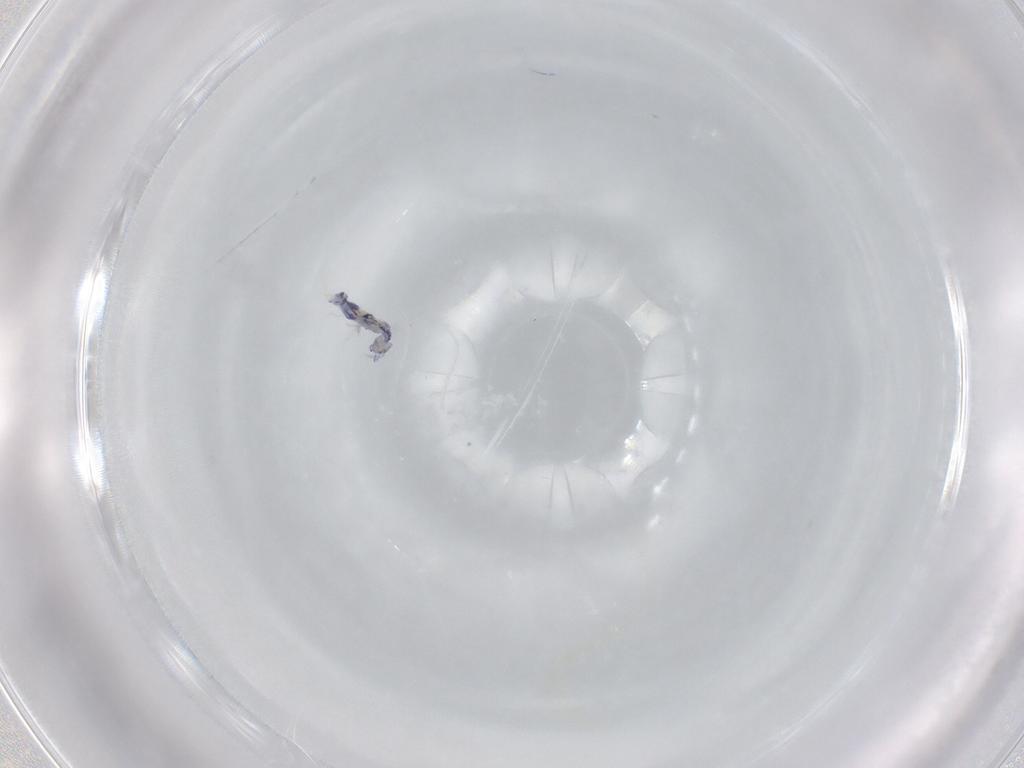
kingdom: Animalia
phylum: Arthropoda
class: Collembola
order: Entomobryomorpha
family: Entomobryidae
